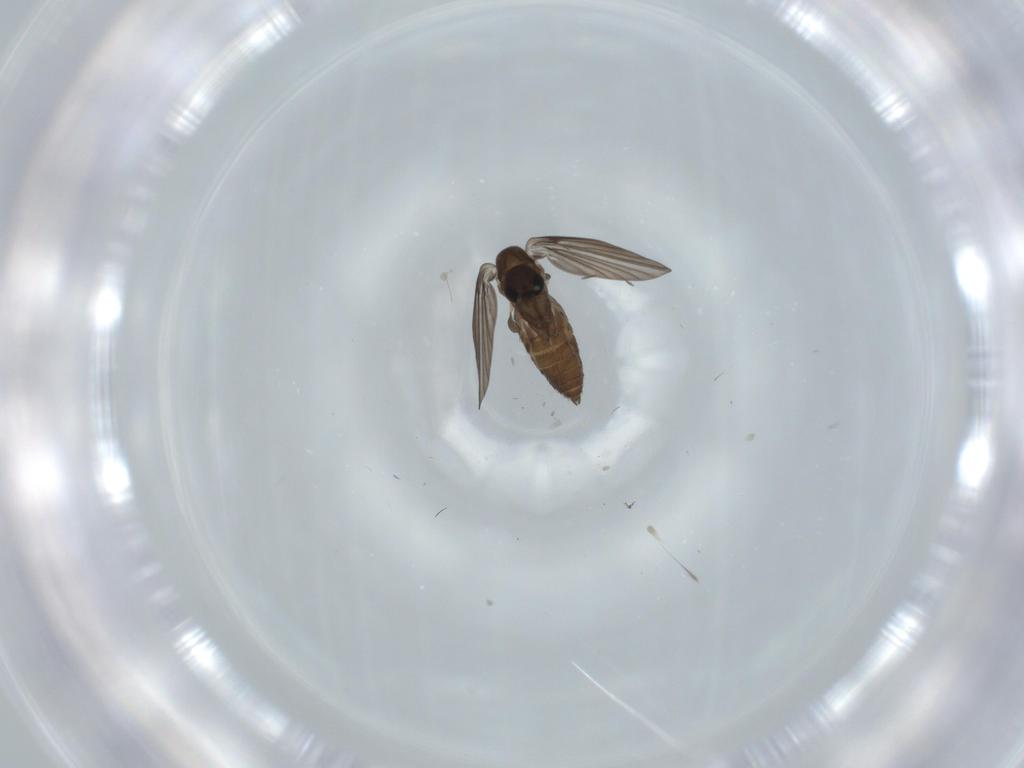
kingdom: Animalia
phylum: Arthropoda
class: Insecta
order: Diptera
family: Psychodidae
